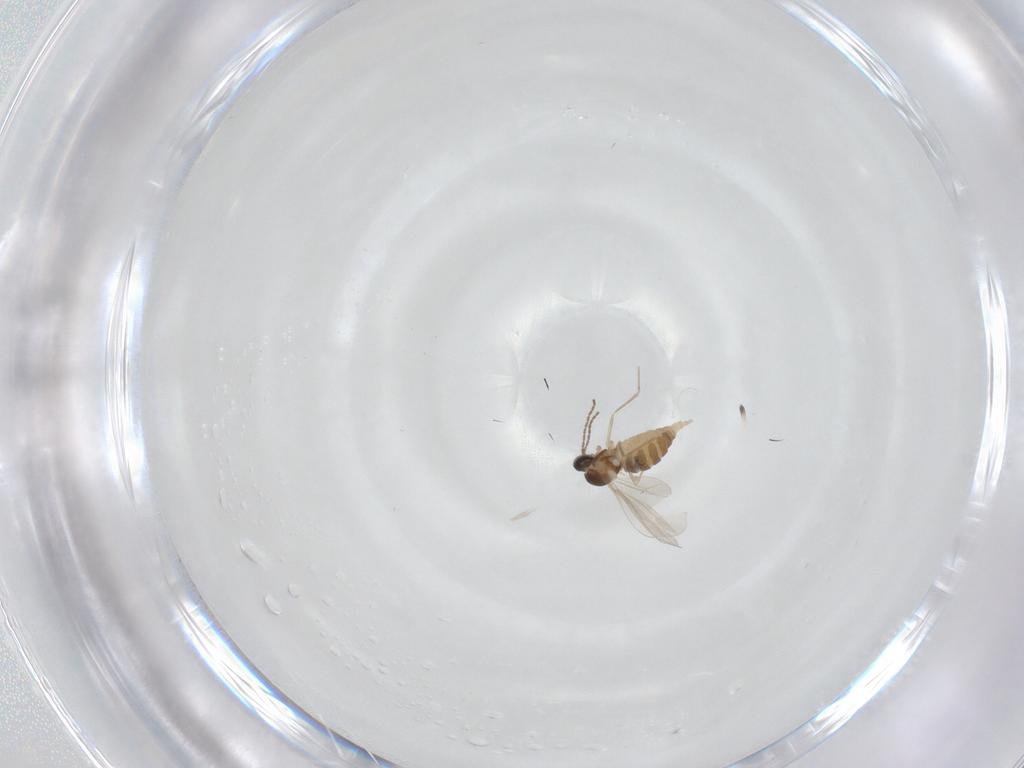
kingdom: Animalia
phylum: Arthropoda
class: Insecta
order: Diptera
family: Cecidomyiidae
